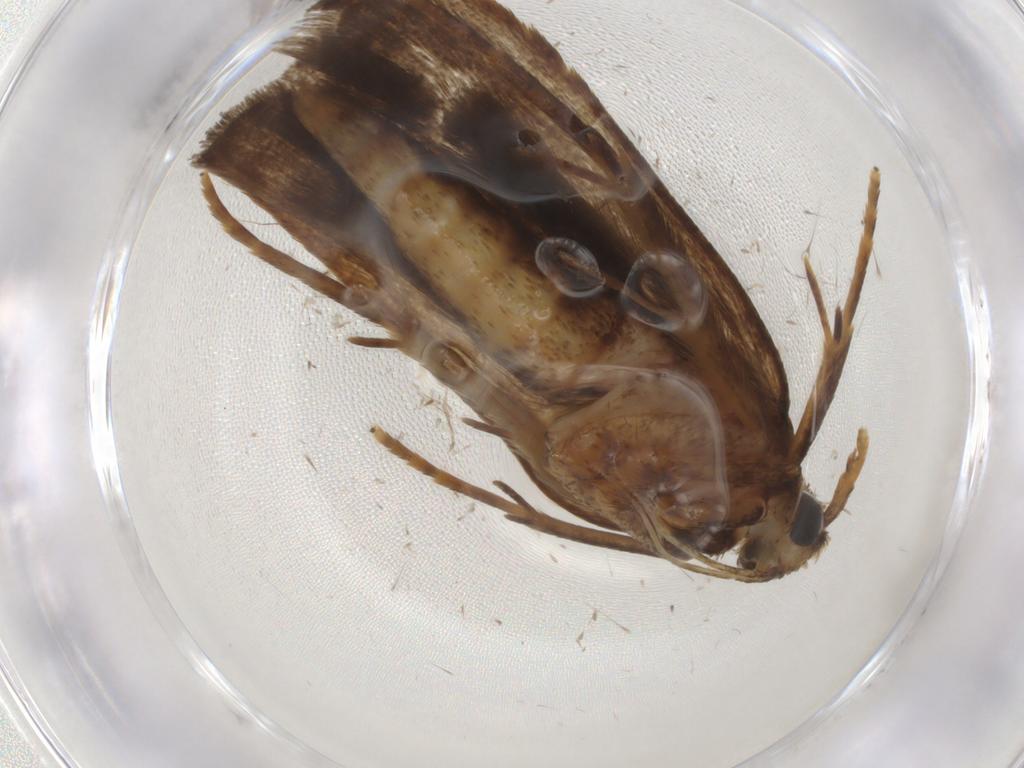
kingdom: Animalia
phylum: Arthropoda
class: Insecta
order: Lepidoptera
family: Autostichidae
